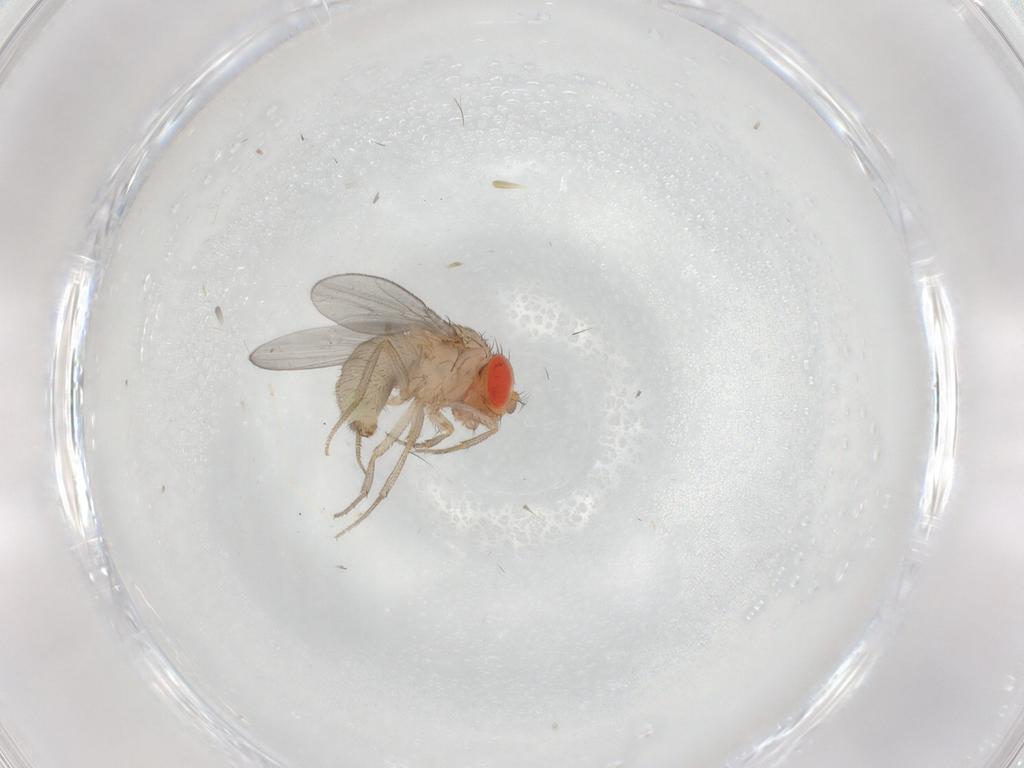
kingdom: Animalia
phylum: Arthropoda
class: Insecta
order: Diptera
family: Drosophilidae
